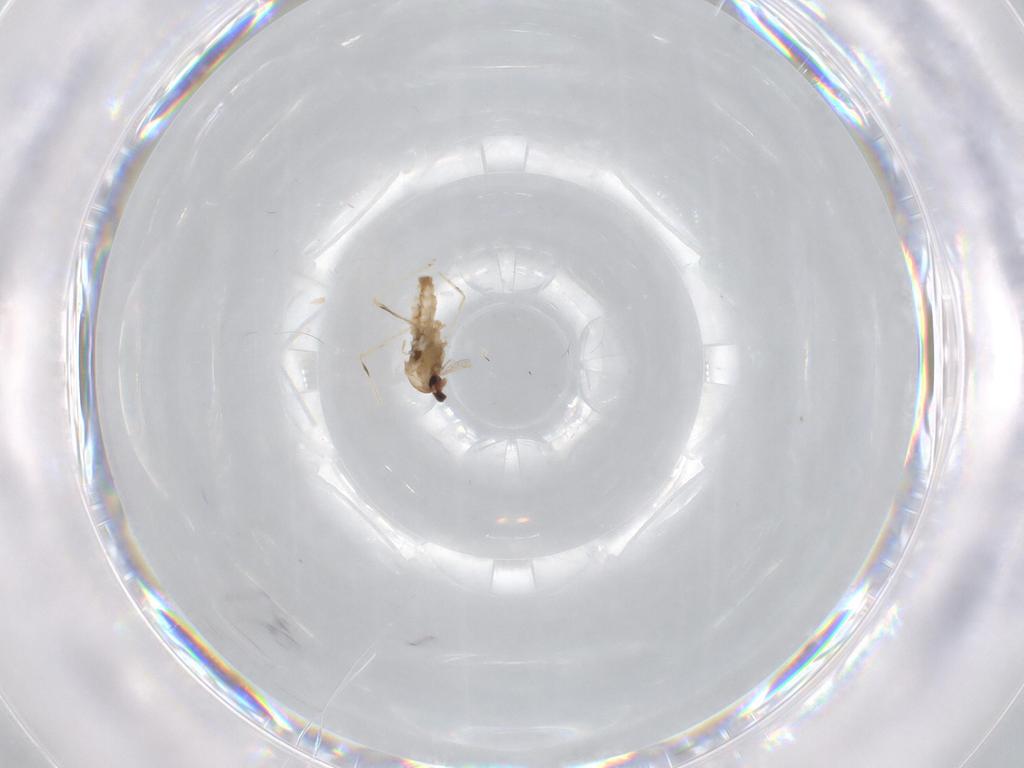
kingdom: Animalia
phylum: Arthropoda
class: Insecta
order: Diptera
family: Cecidomyiidae
